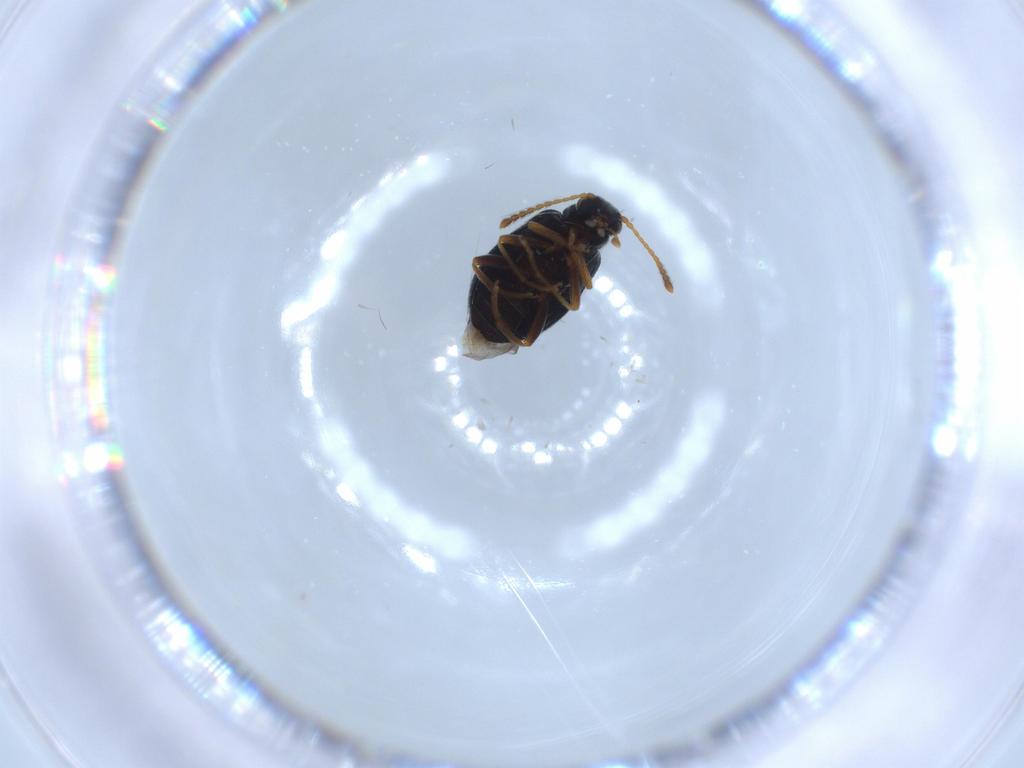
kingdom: Animalia
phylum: Arthropoda
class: Insecta
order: Coleoptera
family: Aderidae
